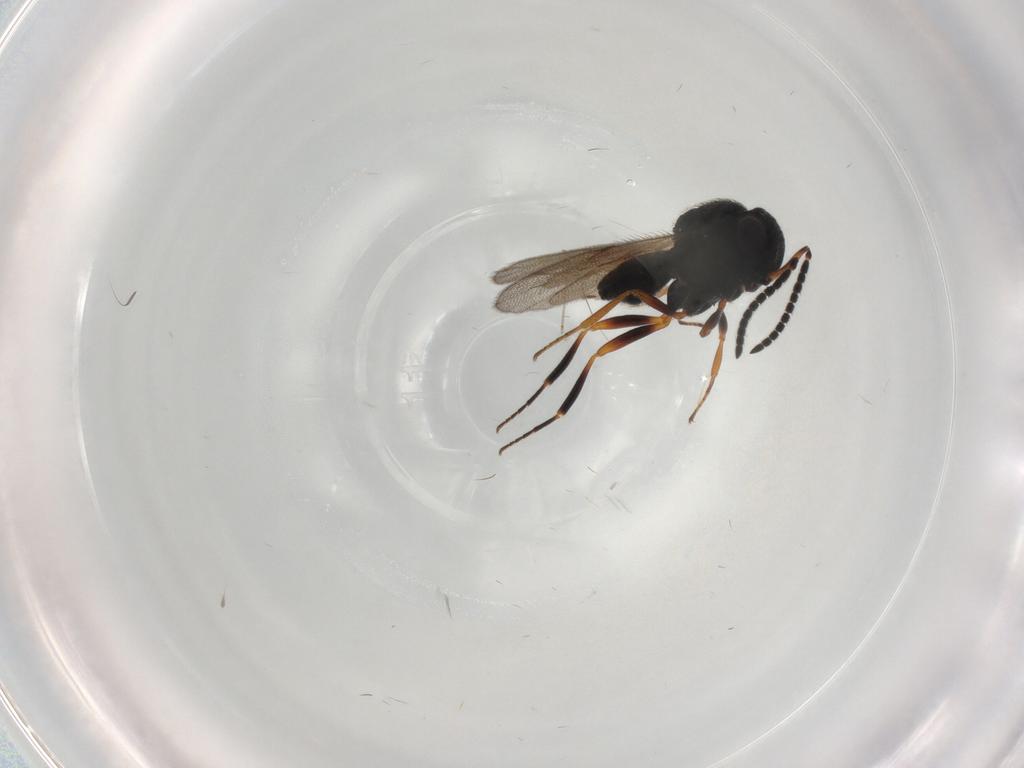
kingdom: Animalia
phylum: Arthropoda
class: Insecta
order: Hymenoptera
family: Scelionidae
